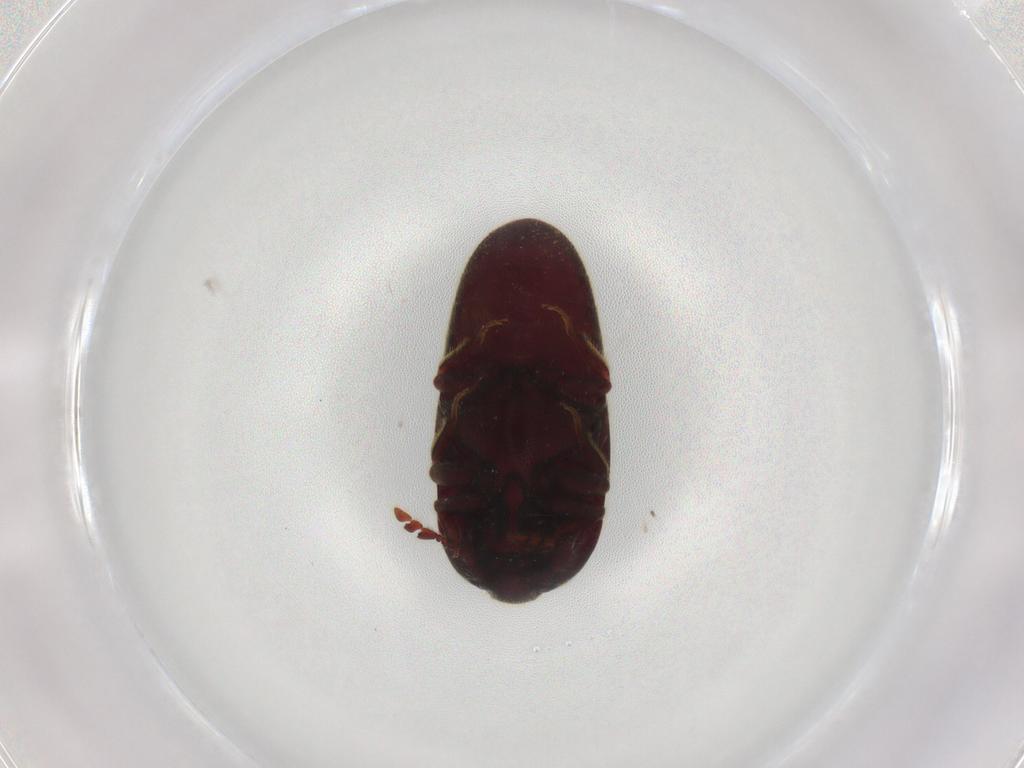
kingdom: Animalia
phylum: Arthropoda
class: Insecta
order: Coleoptera
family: Throscidae
